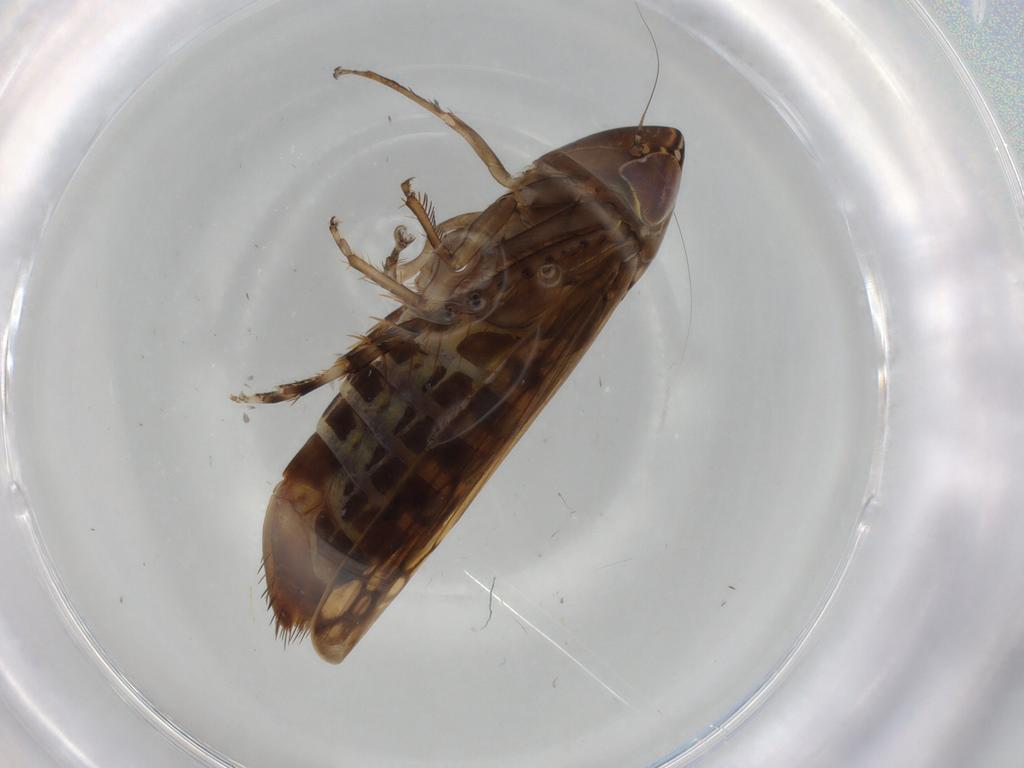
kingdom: Animalia
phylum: Arthropoda
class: Insecta
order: Hemiptera
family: Cicadellidae
